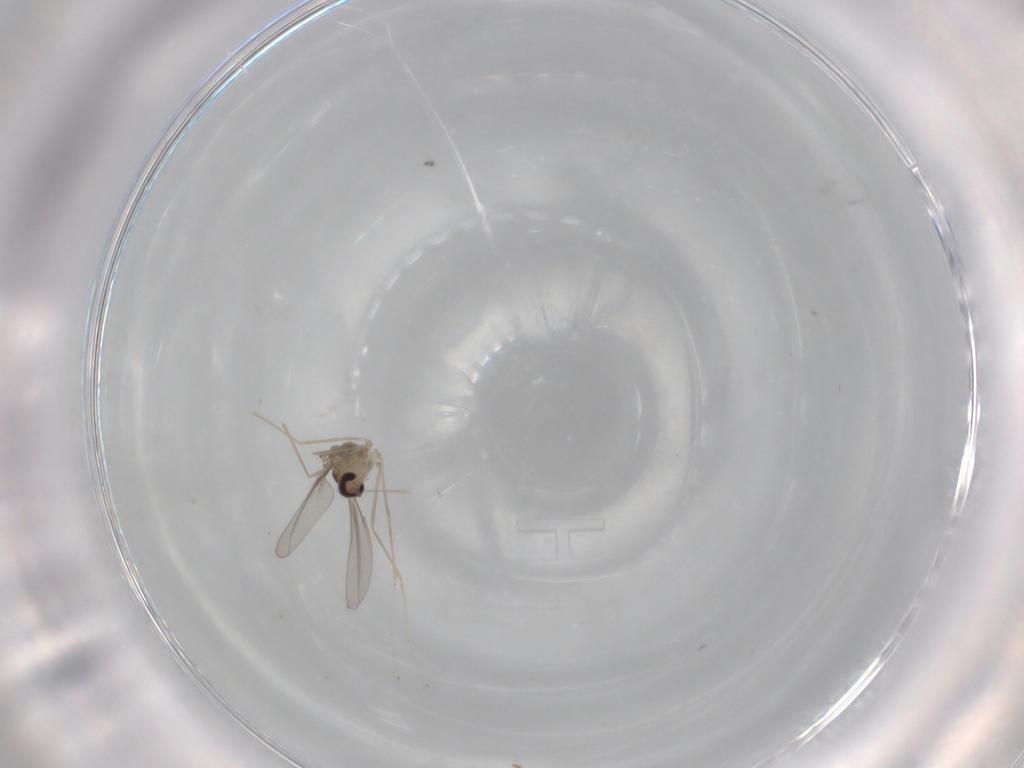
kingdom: Animalia
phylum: Arthropoda
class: Insecta
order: Diptera
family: Cecidomyiidae
